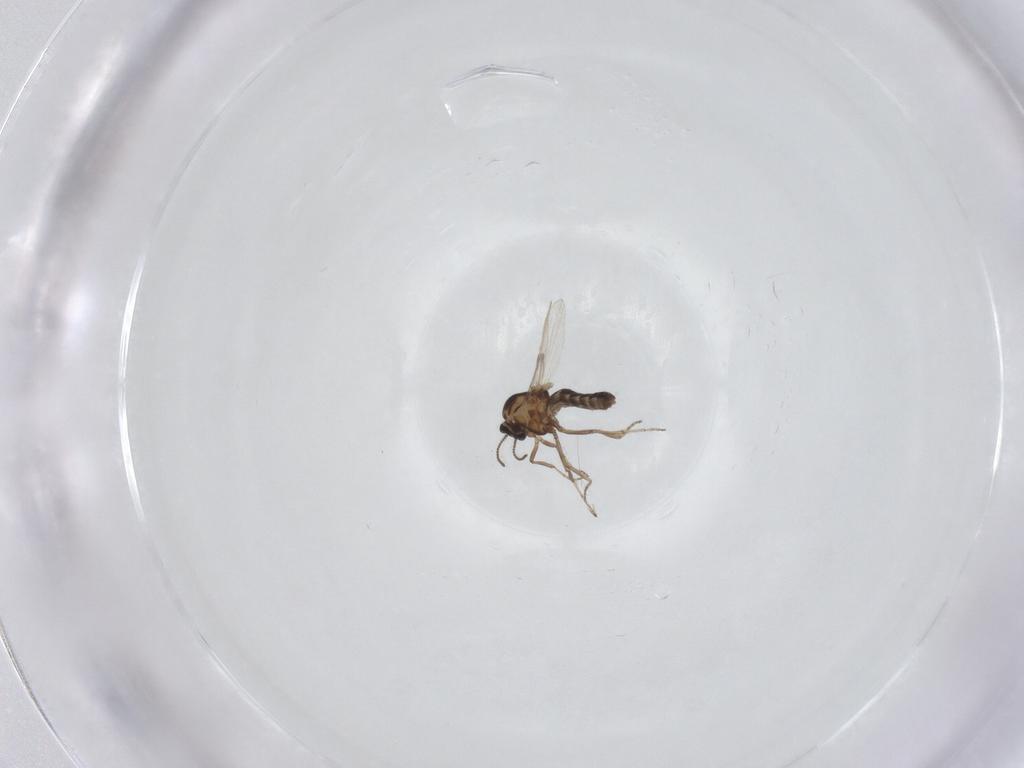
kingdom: Animalia
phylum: Arthropoda
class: Insecta
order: Diptera
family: Ceratopogonidae
